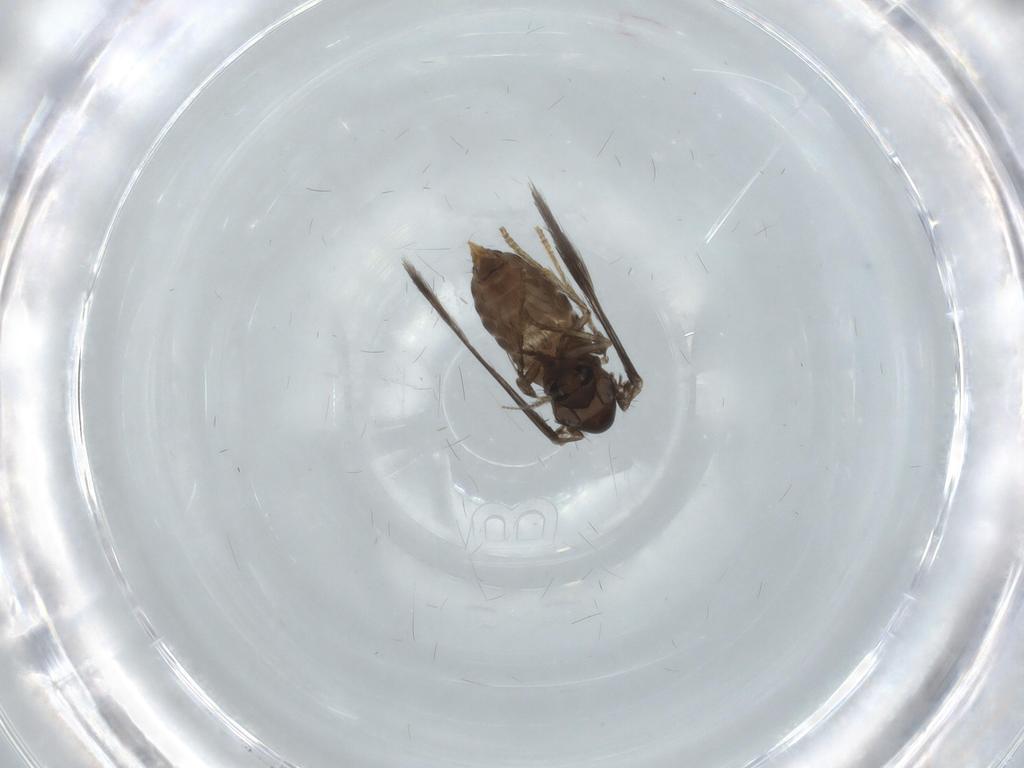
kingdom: Animalia
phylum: Arthropoda
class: Insecta
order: Diptera
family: Psychodidae
